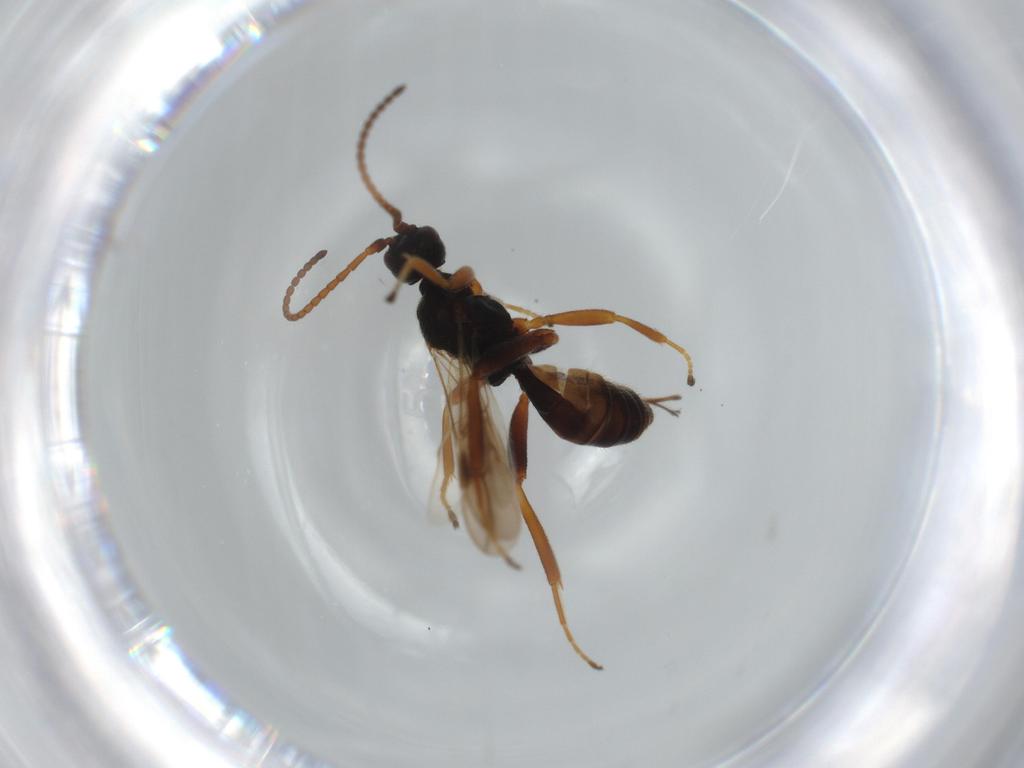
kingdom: Animalia
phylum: Arthropoda
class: Insecta
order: Hymenoptera
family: Braconidae
